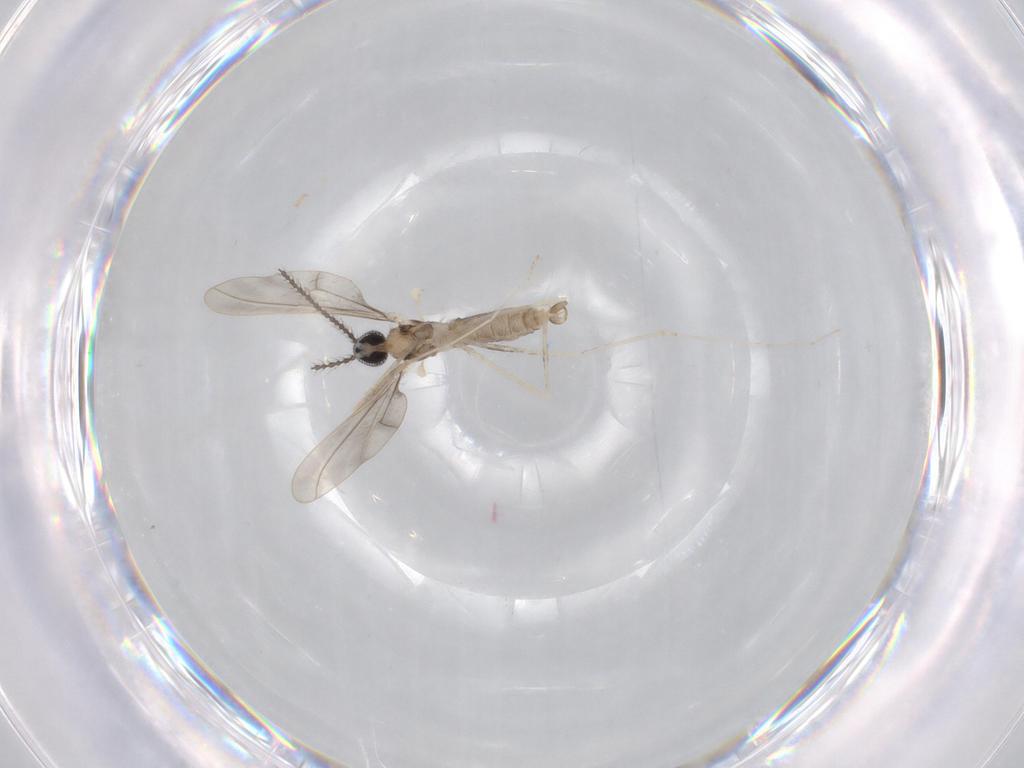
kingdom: Animalia
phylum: Arthropoda
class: Insecta
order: Diptera
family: Cecidomyiidae
